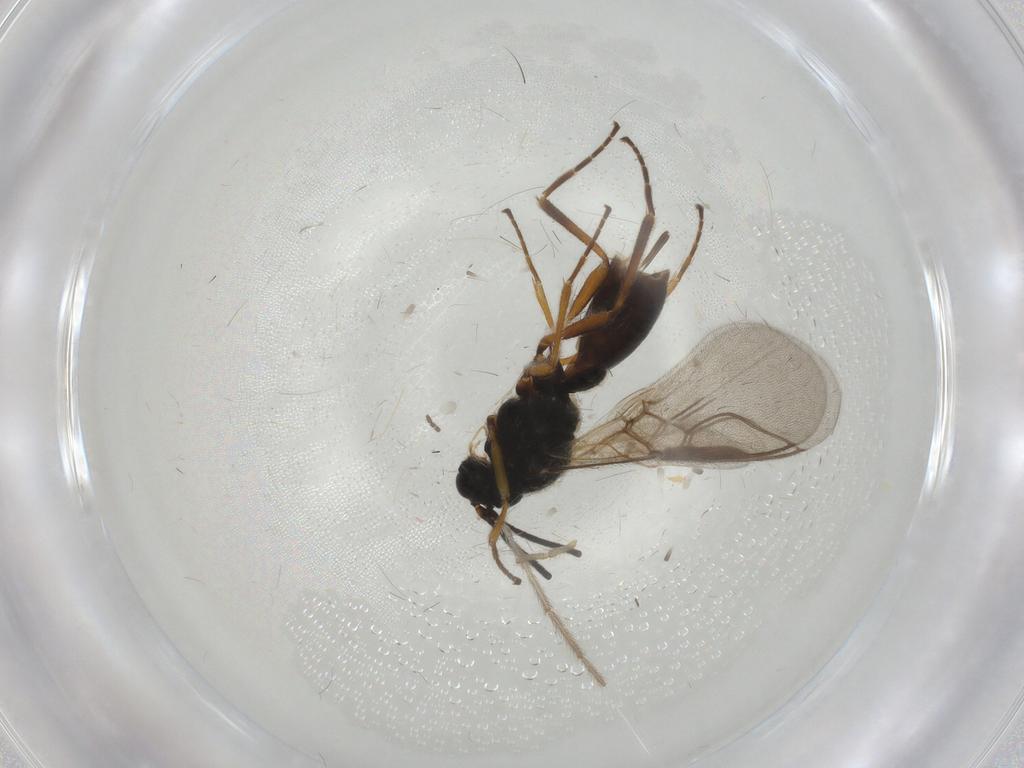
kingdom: Animalia
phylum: Arthropoda
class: Insecta
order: Hymenoptera
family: Braconidae
